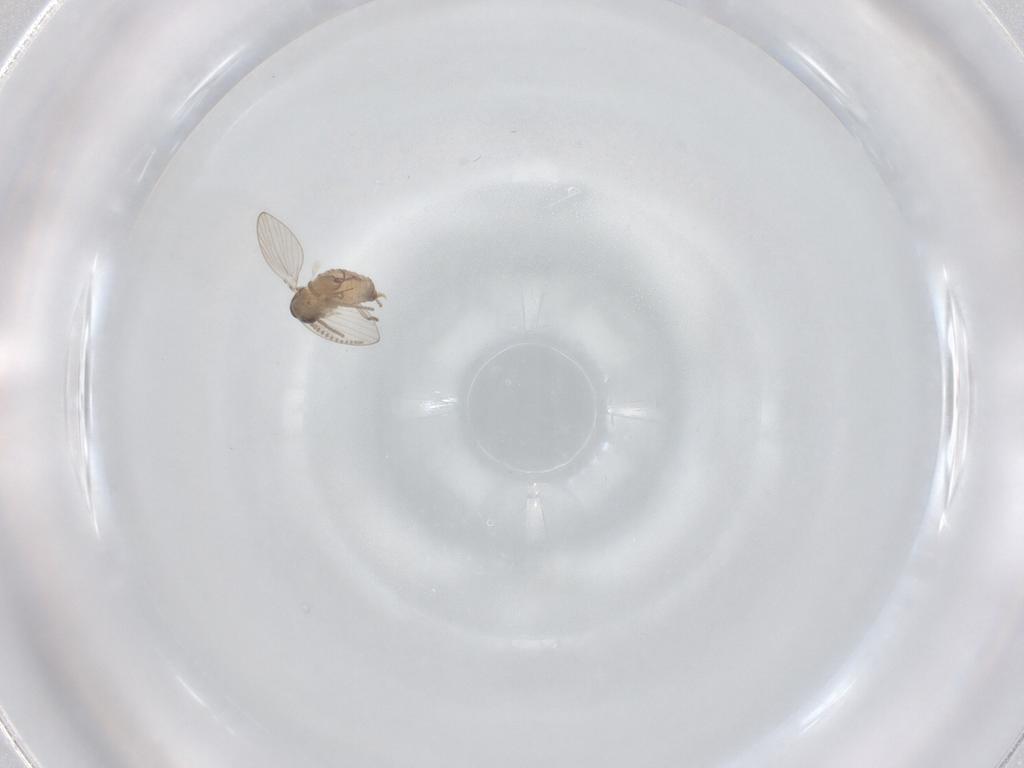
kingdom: Animalia
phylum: Arthropoda
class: Insecta
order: Diptera
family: Psychodidae
